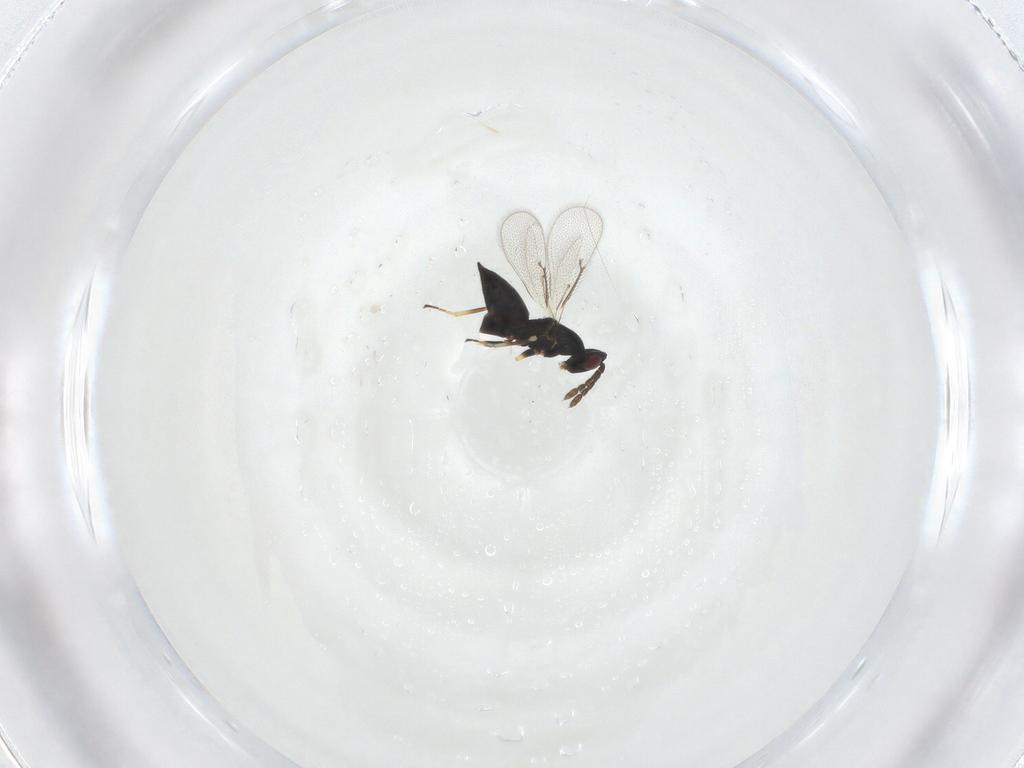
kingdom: Animalia
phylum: Arthropoda
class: Insecta
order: Hymenoptera
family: Eulophidae
